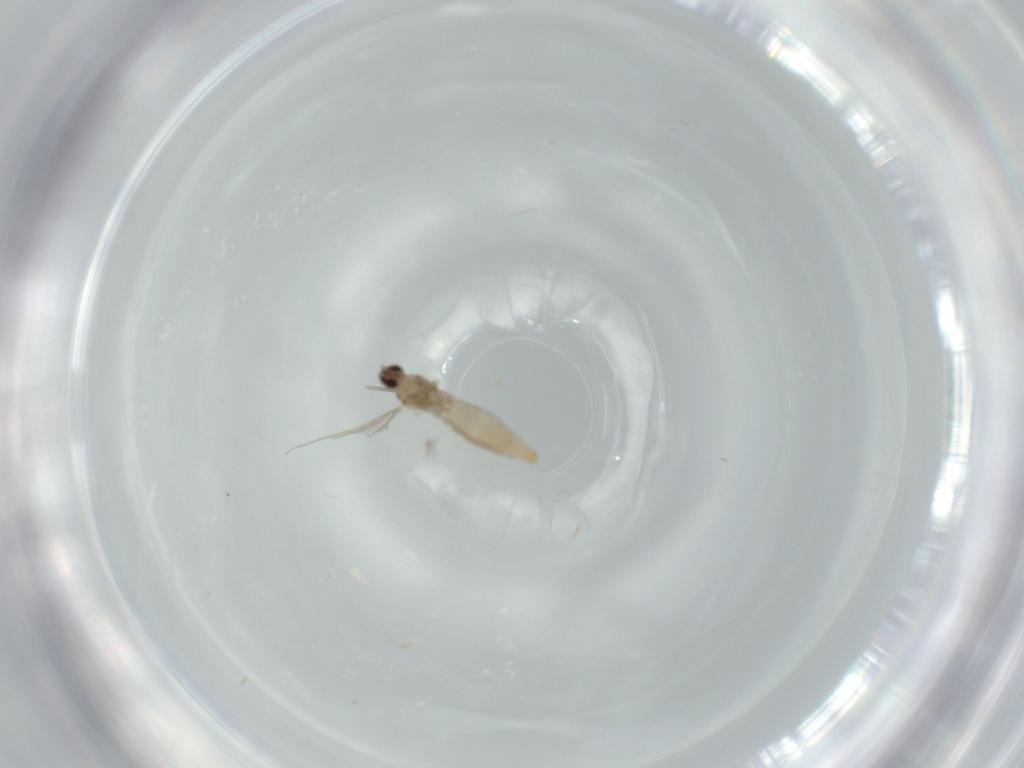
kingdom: Animalia
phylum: Arthropoda
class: Insecta
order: Diptera
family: Cecidomyiidae
